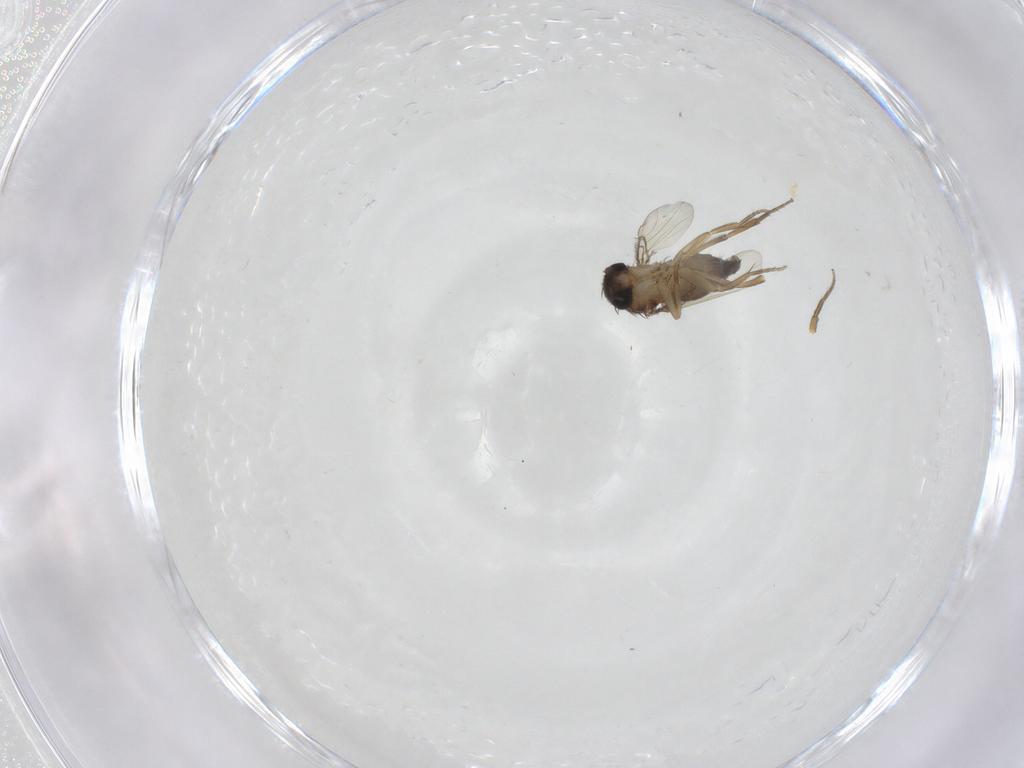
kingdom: Animalia
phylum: Arthropoda
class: Insecta
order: Diptera
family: Phoridae
